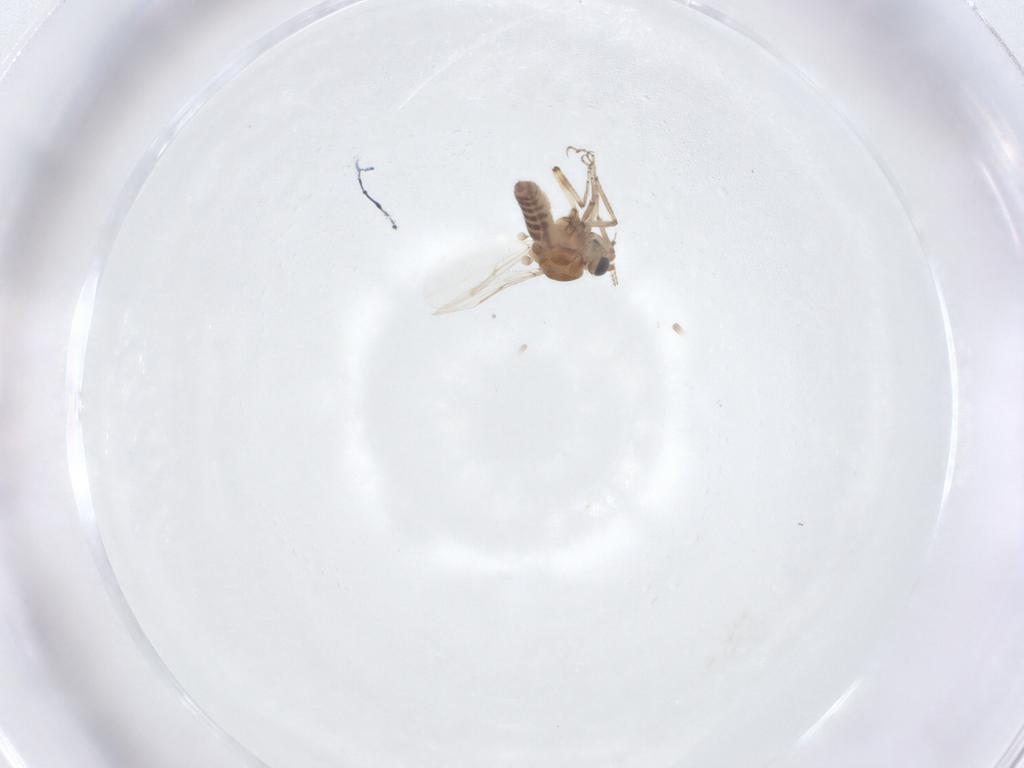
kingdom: Animalia
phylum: Arthropoda
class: Insecta
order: Diptera
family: Ceratopogonidae
